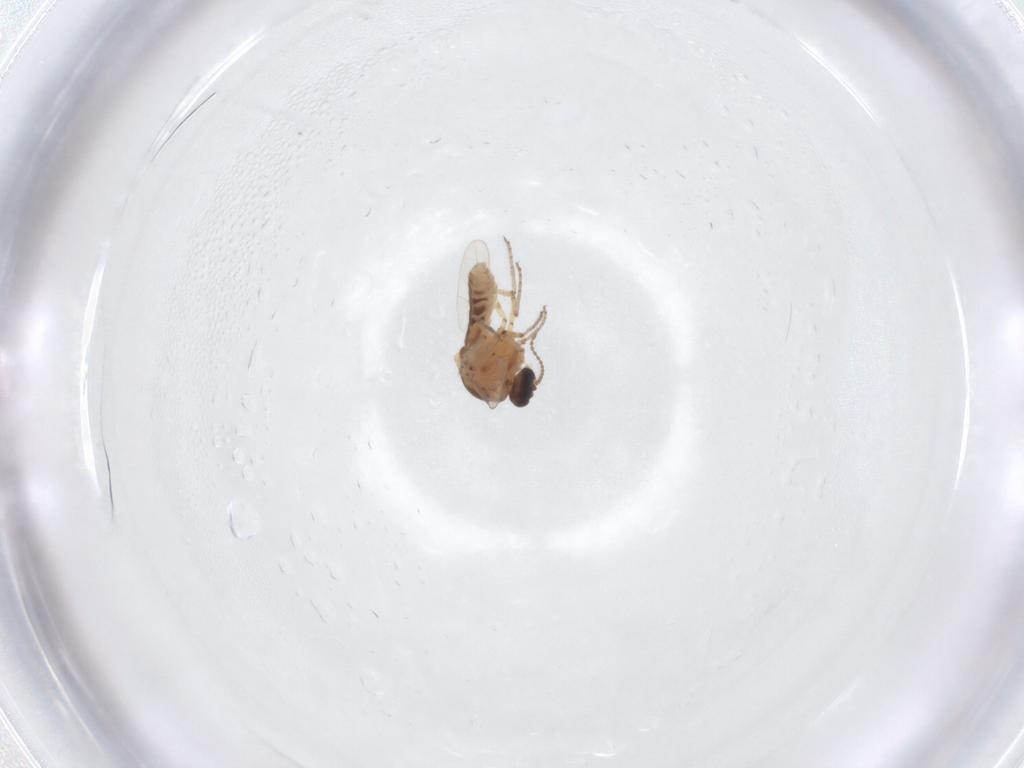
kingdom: Animalia
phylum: Arthropoda
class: Insecta
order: Diptera
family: Ceratopogonidae
